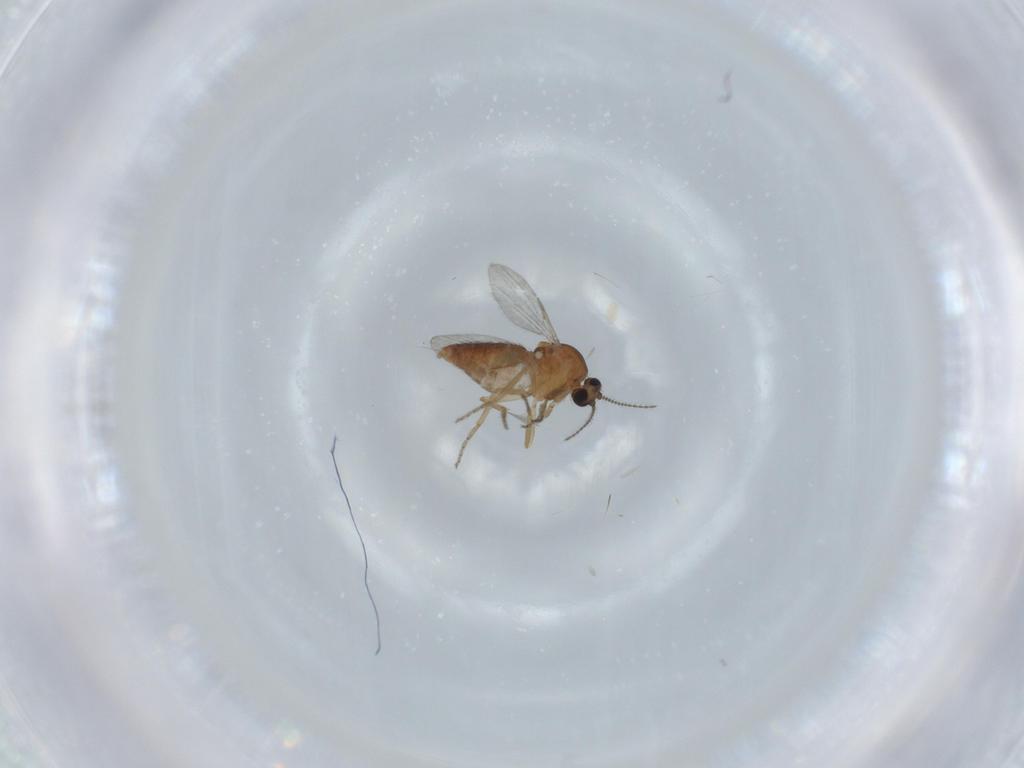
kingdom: Animalia
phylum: Arthropoda
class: Insecta
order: Diptera
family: Ceratopogonidae
